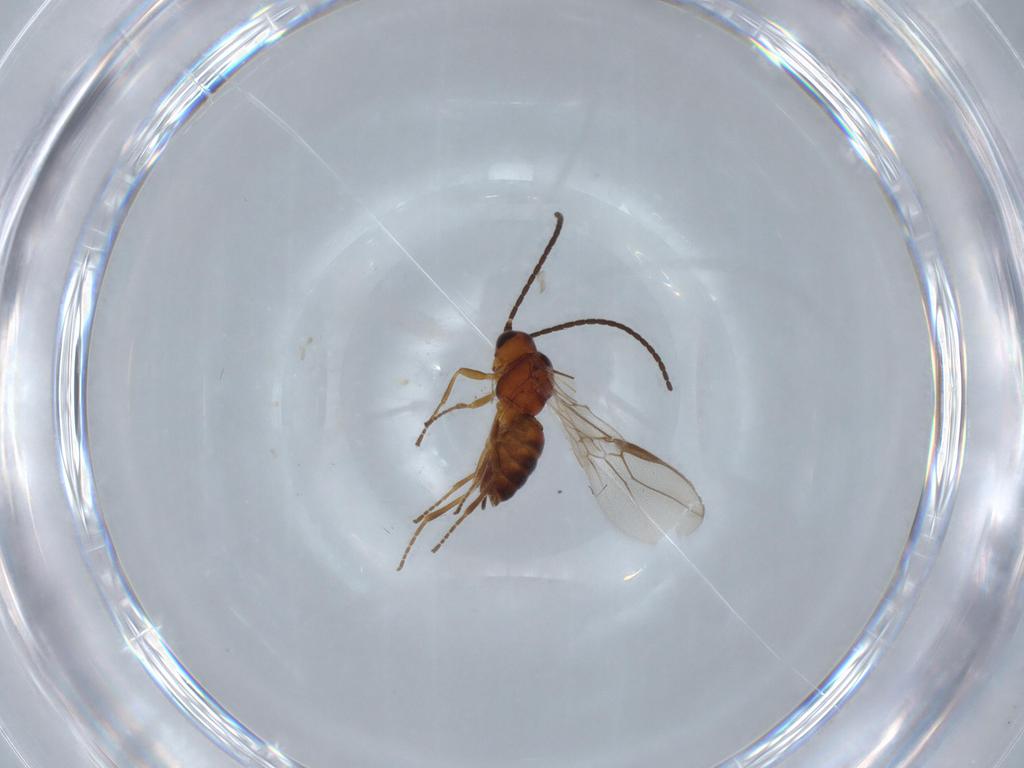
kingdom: Animalia
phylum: Arthropoda
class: Insecta
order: Hymenoptera
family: Braconidae
